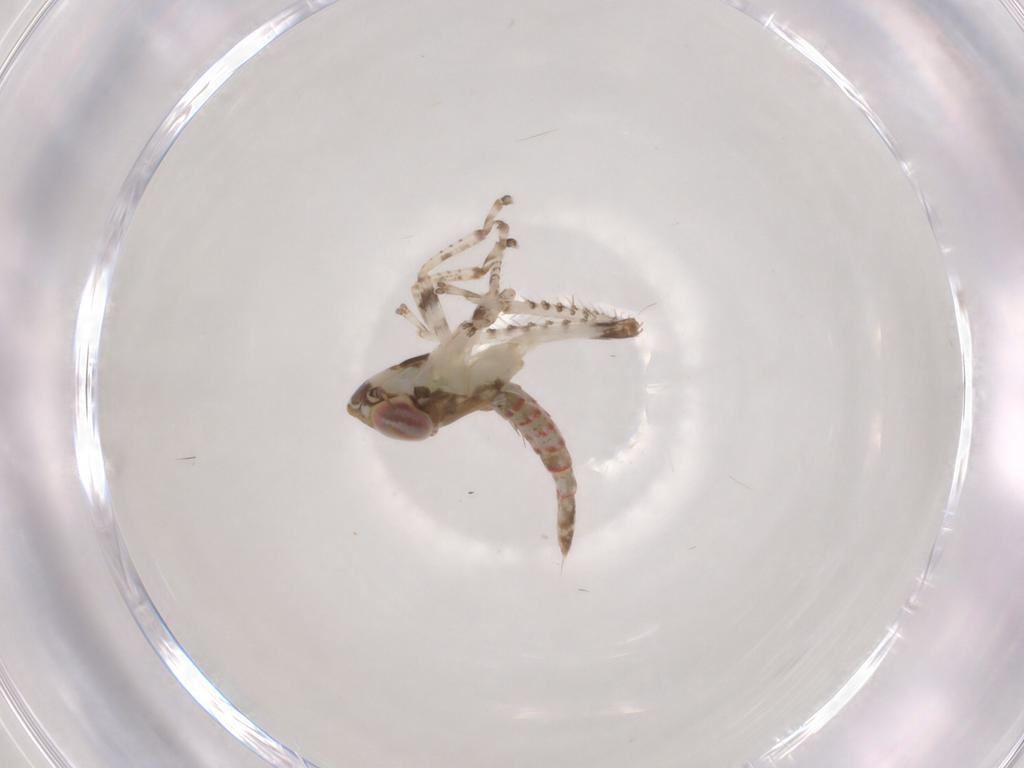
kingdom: Animalia
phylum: Arthropoda
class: Insecta
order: Hemiptera
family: Cicadellidae
